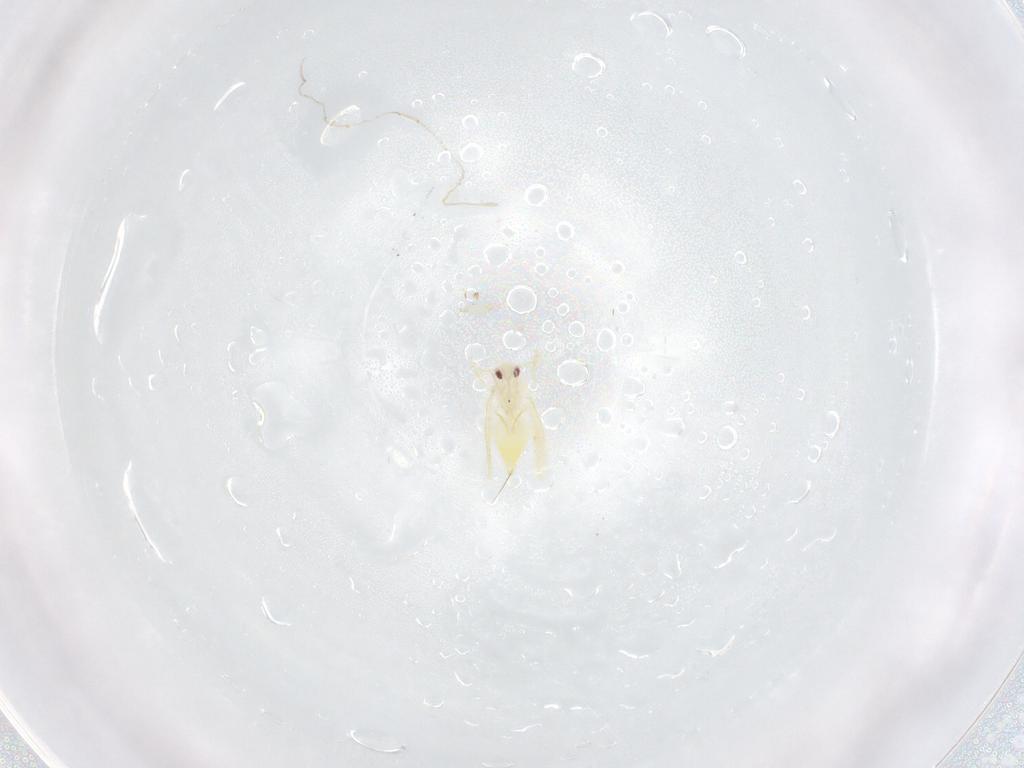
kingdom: Animalia
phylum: Arthropoda
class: Insecta
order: Hemiptera
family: Aleyrodidae
